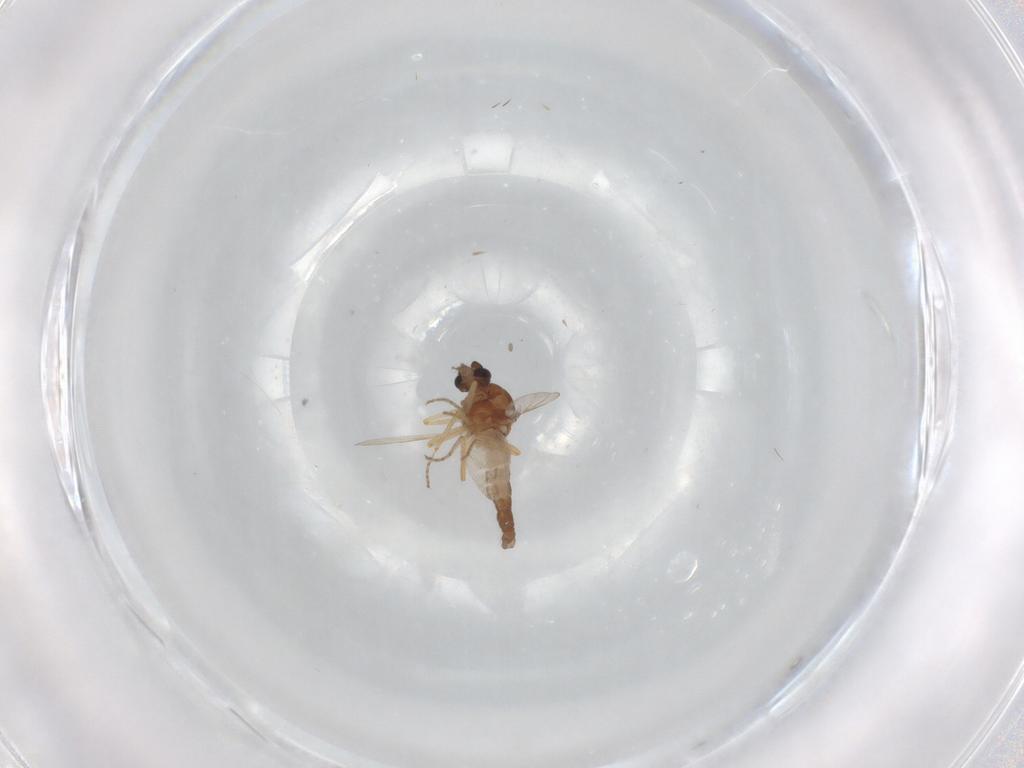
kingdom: Animalia
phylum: Arthropoda
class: Insecta
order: Diptera
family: Ceratopogonidae
